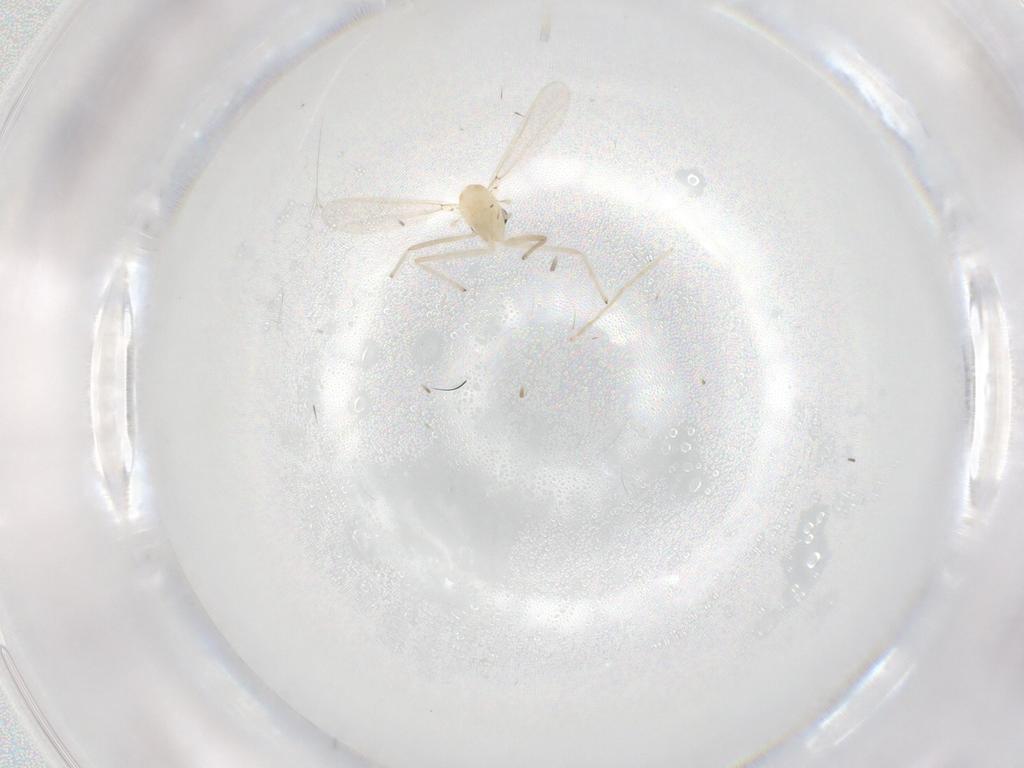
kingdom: Animalia
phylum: Arthropoda
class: Insecta
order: Diptera
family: Chironomidae
